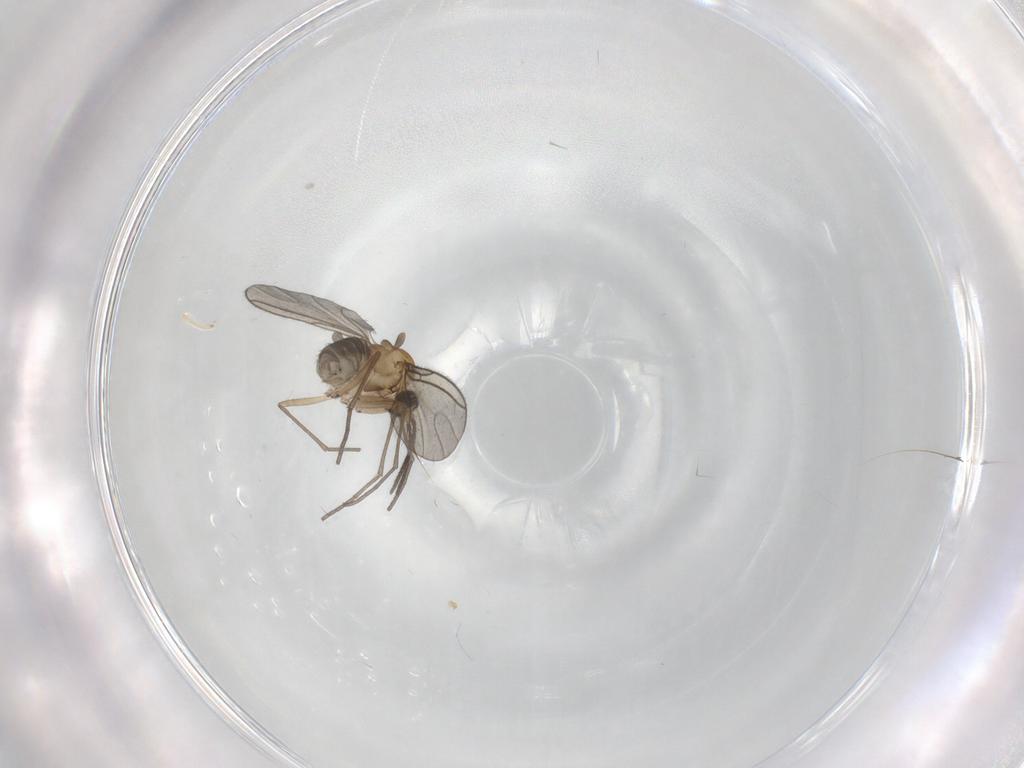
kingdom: Animalia
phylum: Arthropoda
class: Insecta
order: Diptera
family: Sciaridae
